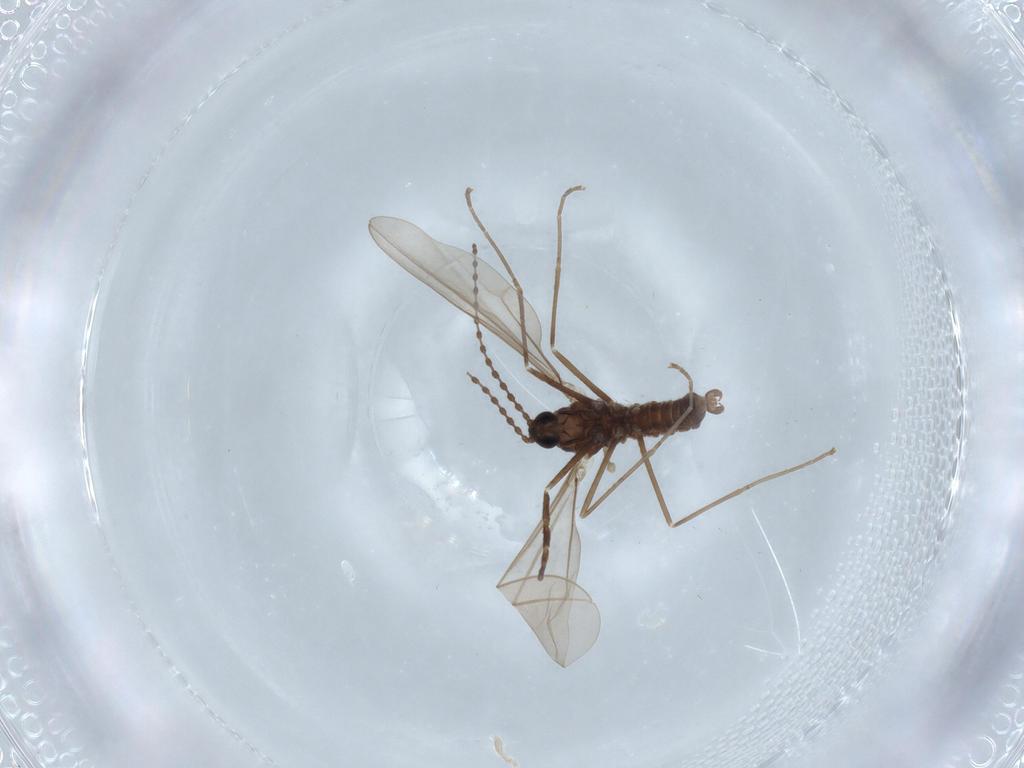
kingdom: Animalia
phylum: Arthropoda
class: Insecta
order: Diptera
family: Cecidomyiidae
